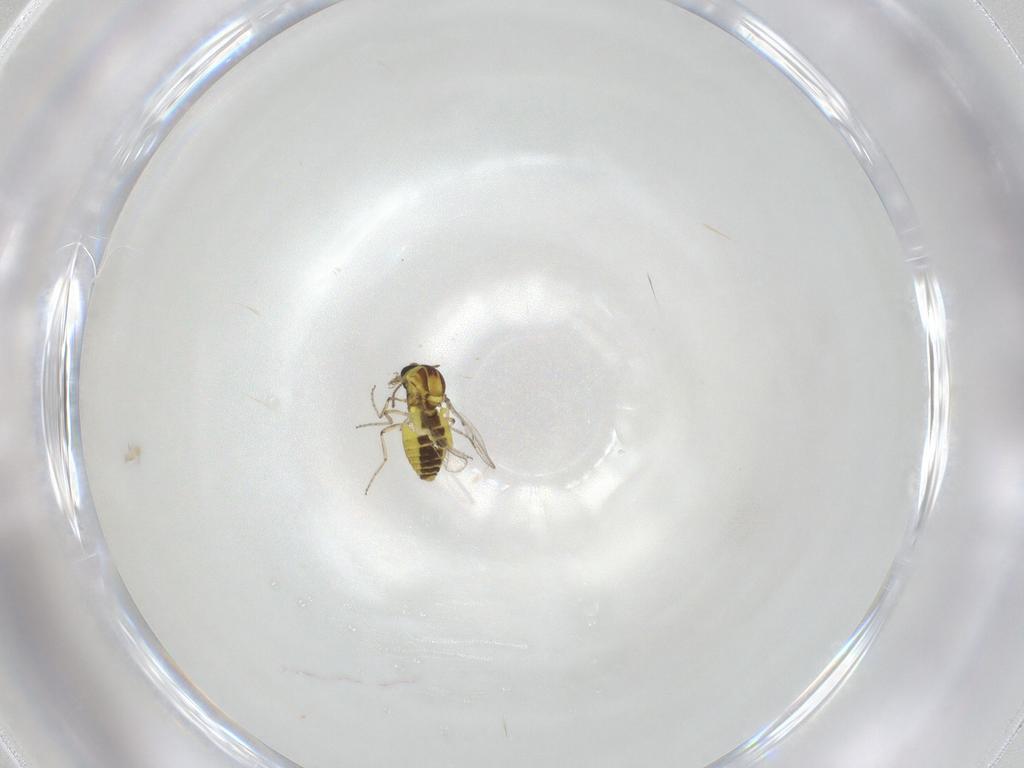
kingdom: Animalia
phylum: Arthropoda
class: Insecta
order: Diptera
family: Ceratopogonidae
